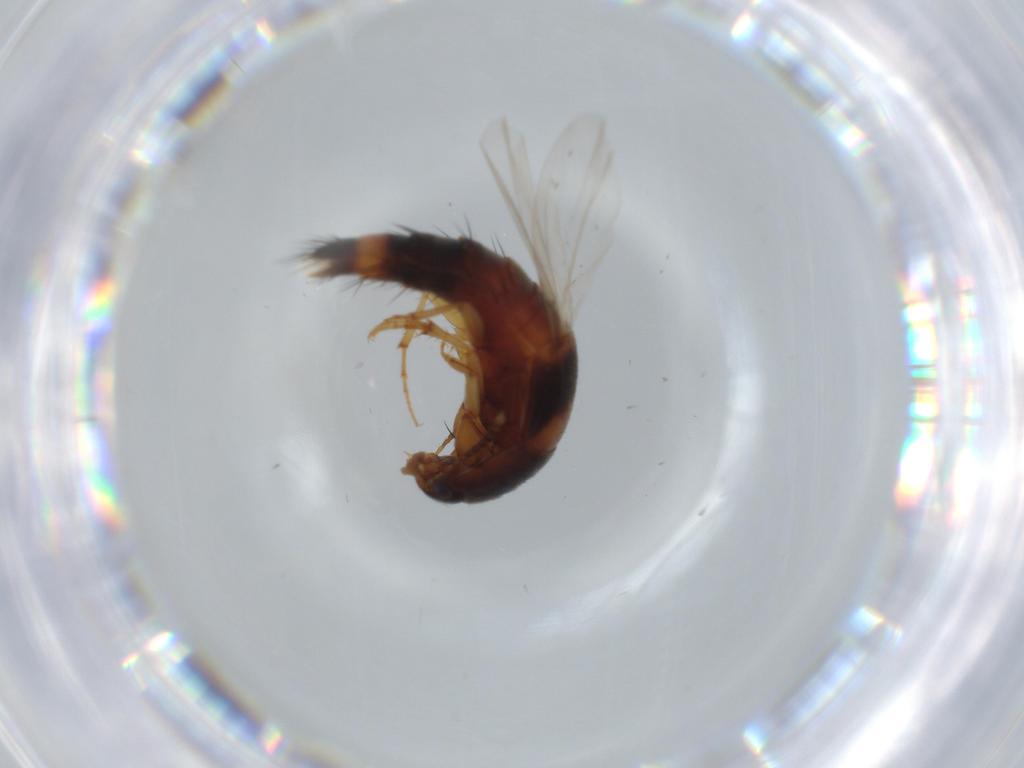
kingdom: Animalia
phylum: Arthropoda
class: Insecta
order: Coleoptera
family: Staphylinidae
